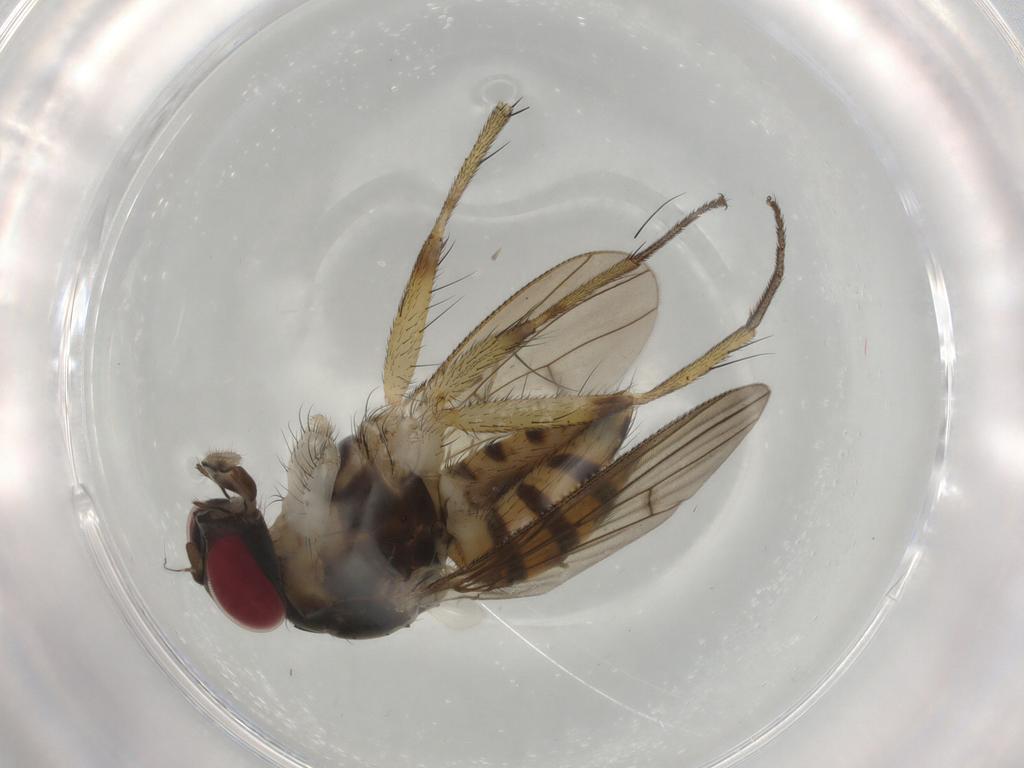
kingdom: Animalia
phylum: Arthropoda
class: Insecta
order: Diptera
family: Muscidae
